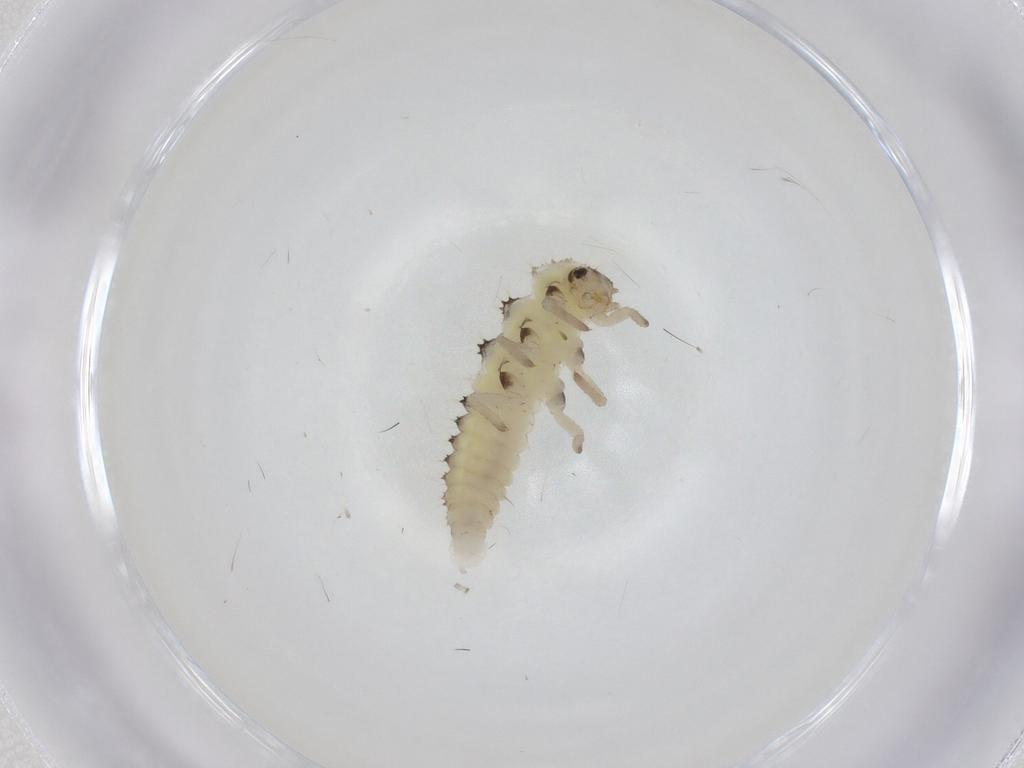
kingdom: Animalia
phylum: Arthropoda
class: Insecta
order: Coleoptera
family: Coccinellidae
